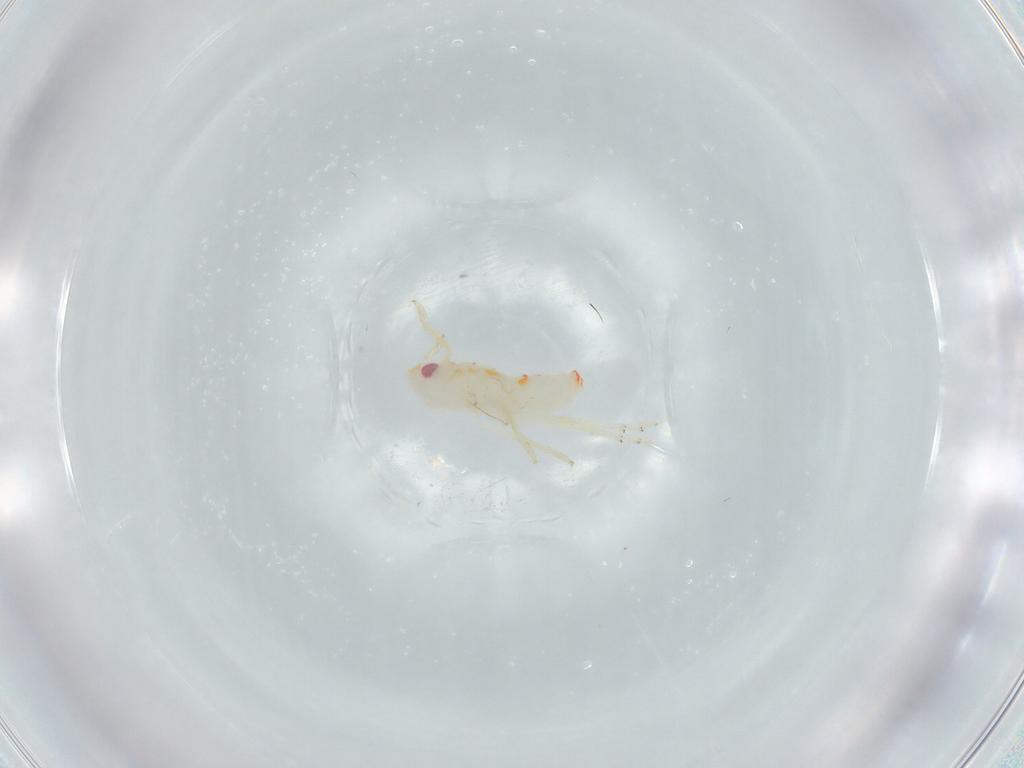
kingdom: Animalia
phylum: Arthropoda
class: Insecta
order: Hemiptera
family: Tropiduchidae
